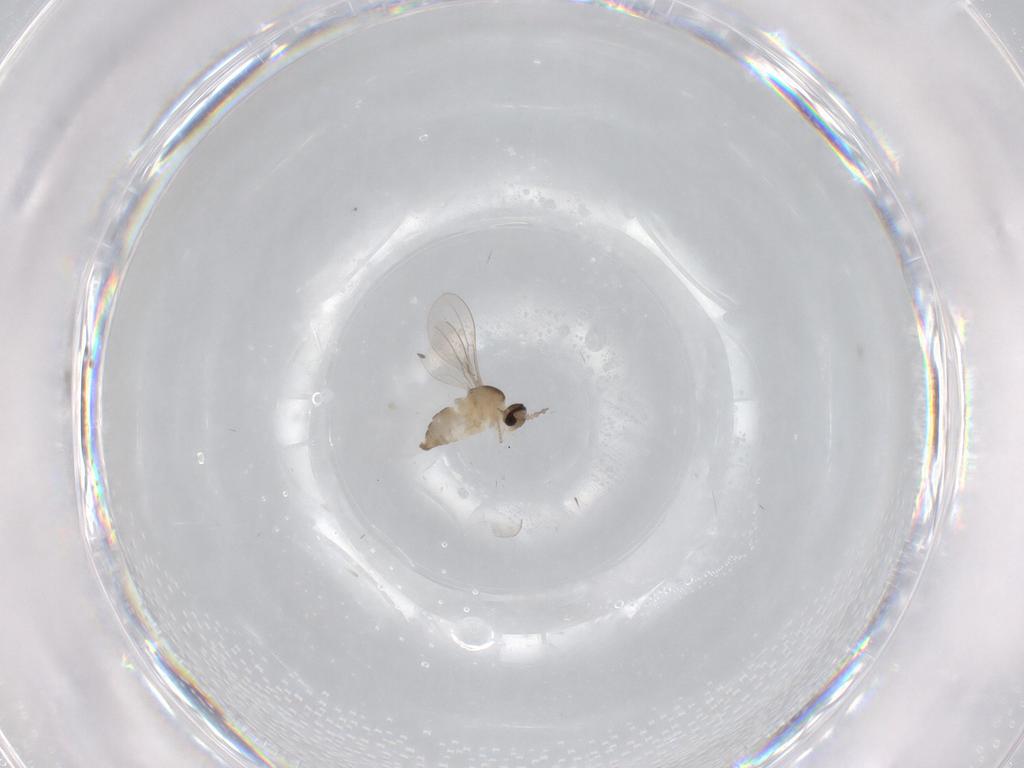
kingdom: Animalia
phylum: Arthropoda
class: Insecta
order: Diptera
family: Cecidomyiidae
